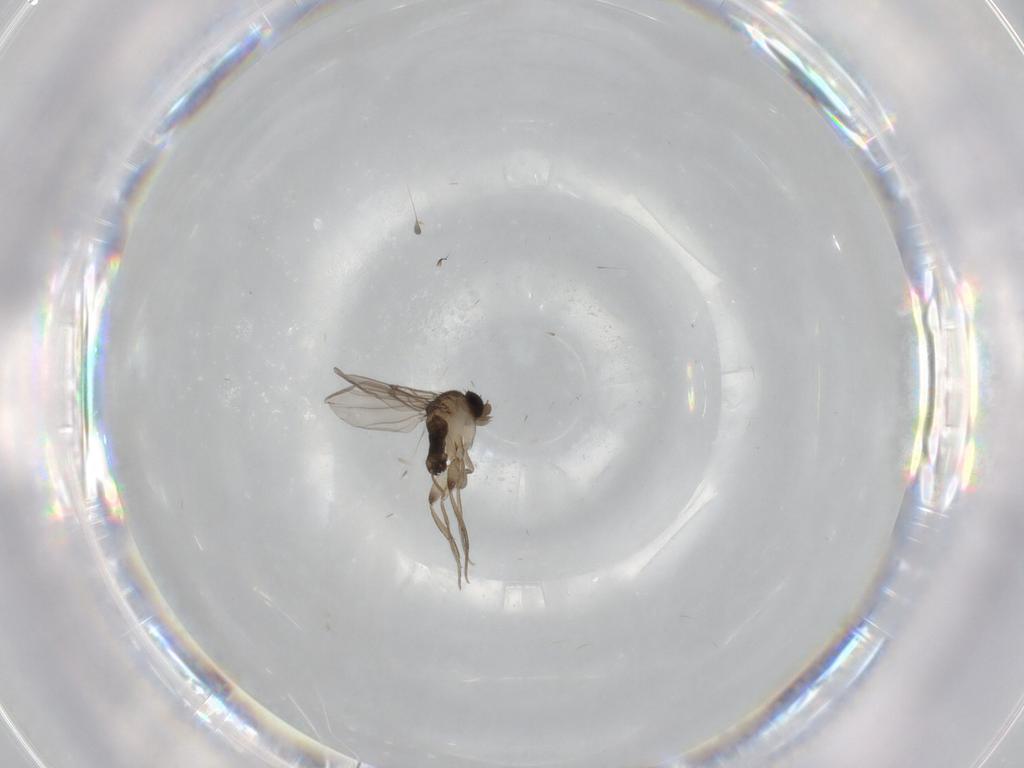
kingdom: Animalia
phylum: Arthropoda
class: Insecta
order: Diptera
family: Phoridae
